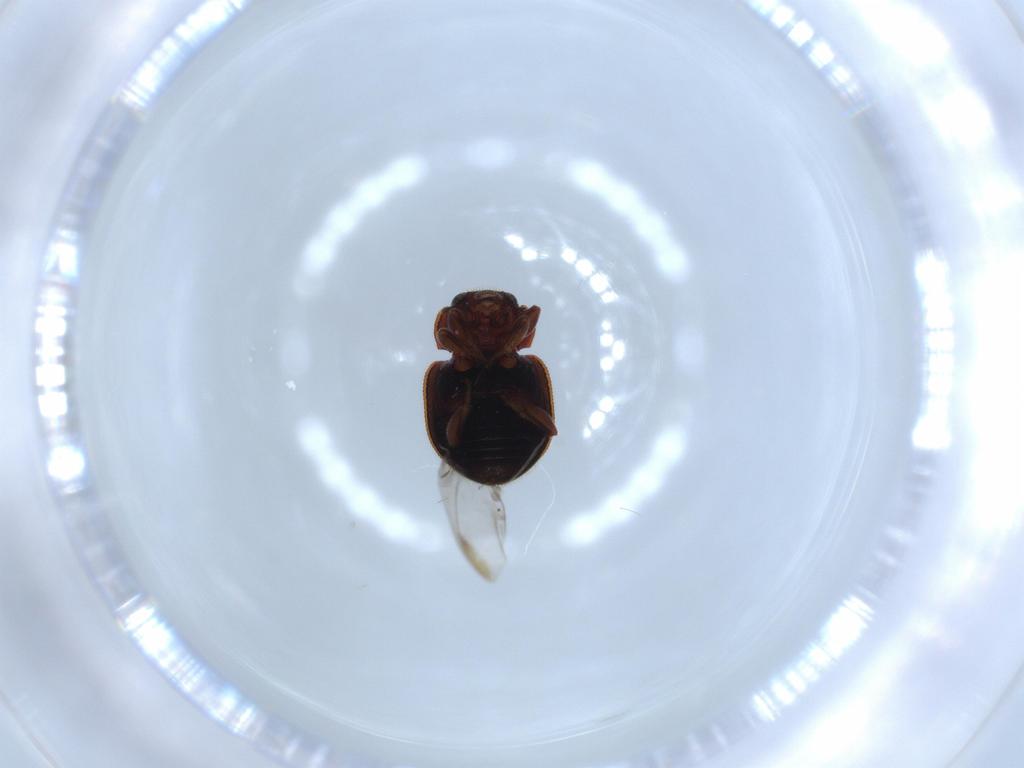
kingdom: Animalia
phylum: Arthropoda
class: Insecta
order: Coleoptera
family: Coccinellidae
